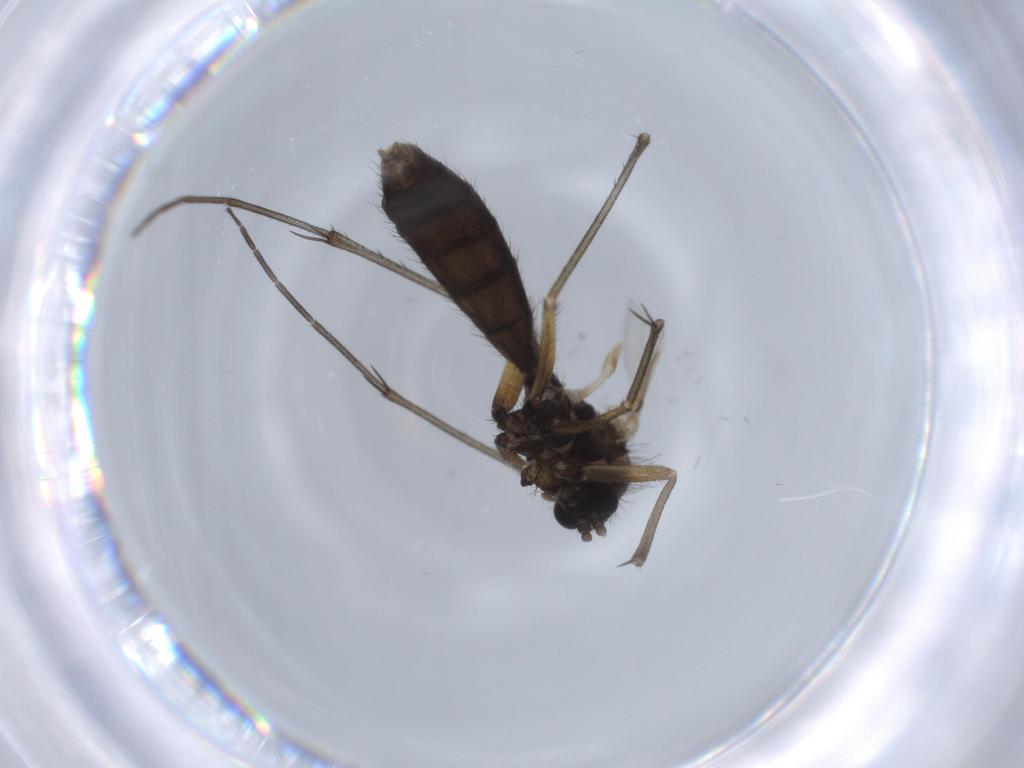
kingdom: Animalia
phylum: Arthropoda
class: Insecta
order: Diptera
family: Mycetophilidae
